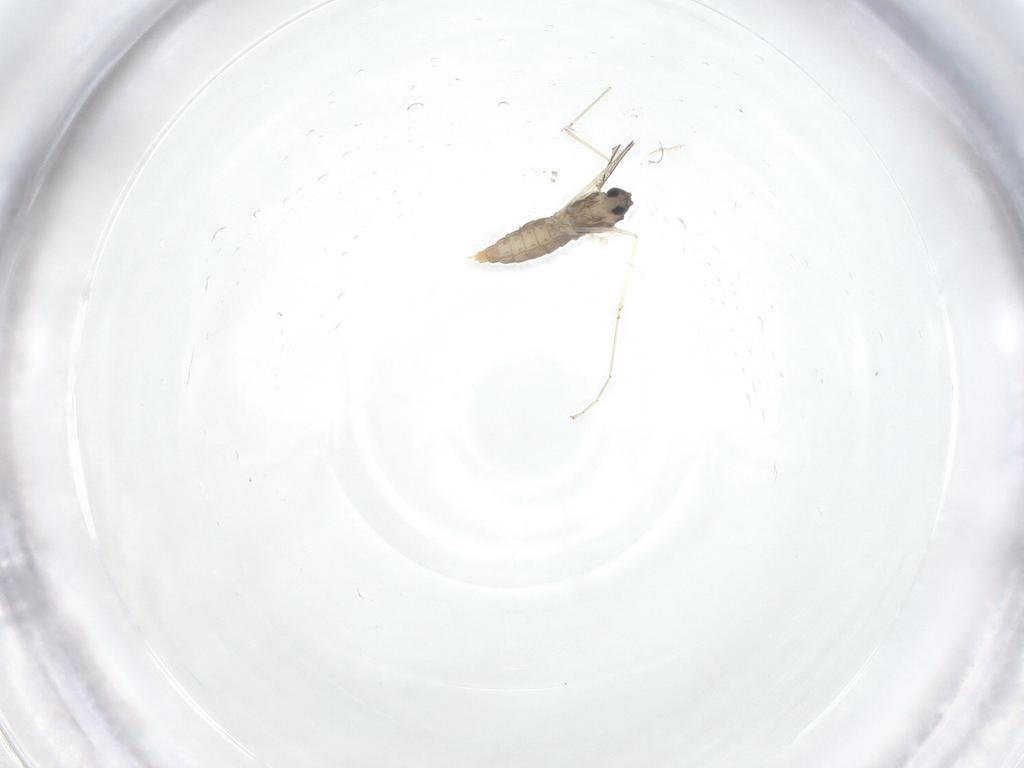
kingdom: Animalia
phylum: Arthropoda
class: Insecta
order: Diptera
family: Cecidomyiidae
